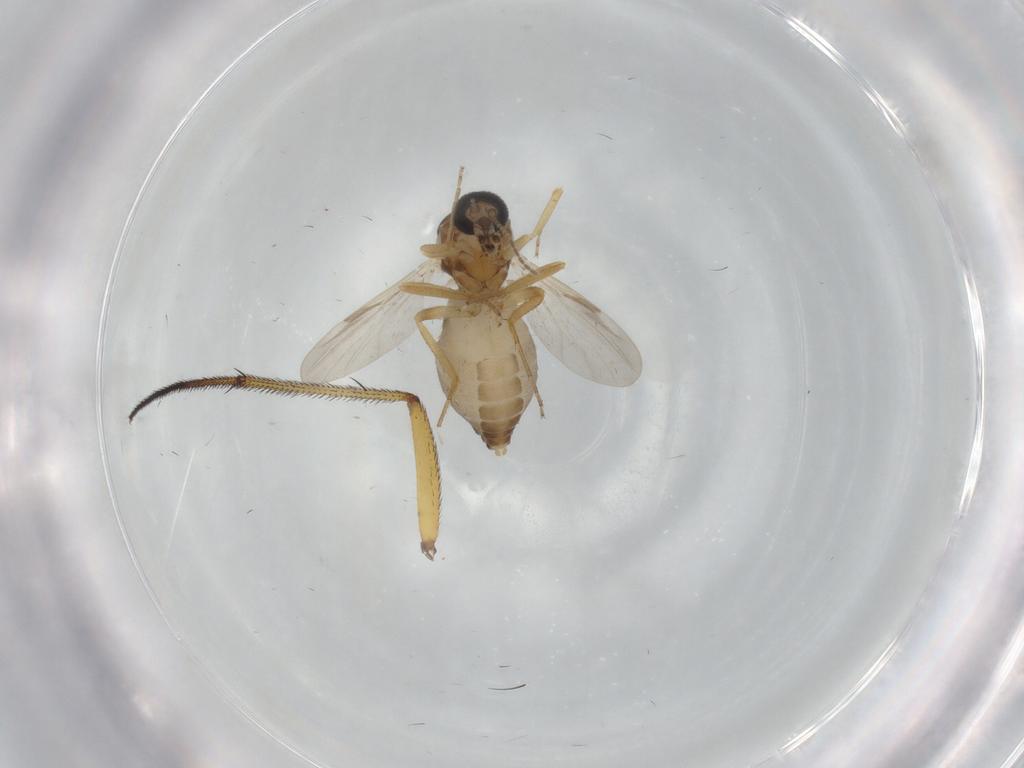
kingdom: Animalia
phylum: Arthropoda
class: Insecta
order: Diptera
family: Ceratopogonidae
